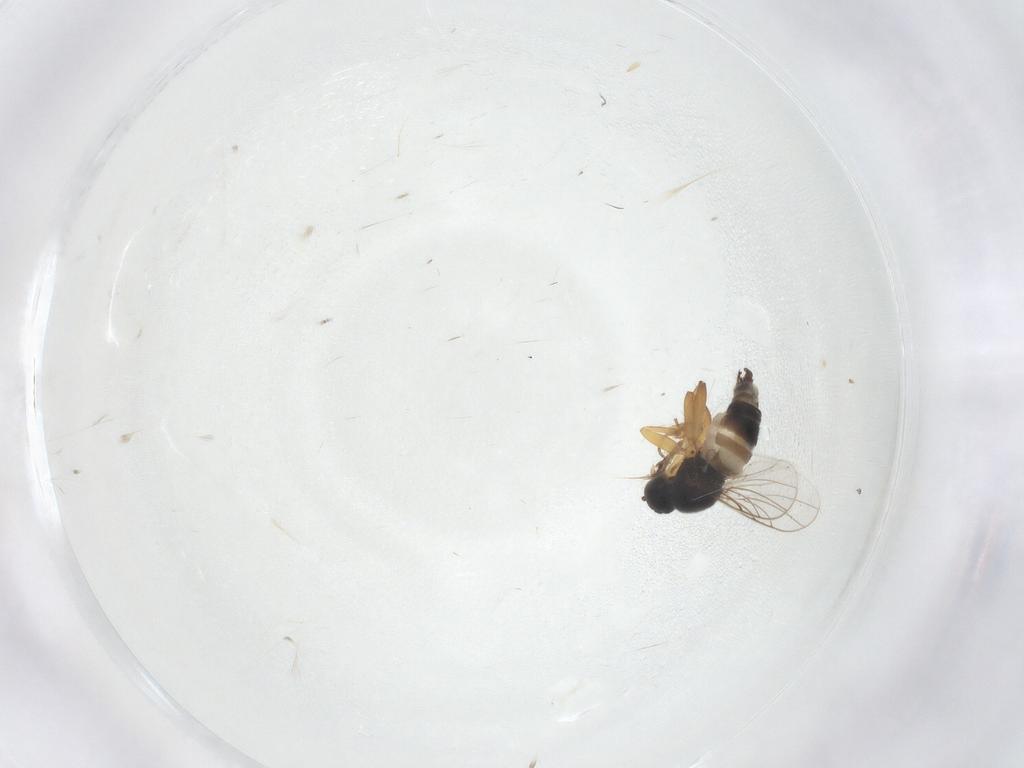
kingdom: Animalia
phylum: Arthropoda
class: Insecta
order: Diptera
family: Hybotidae
